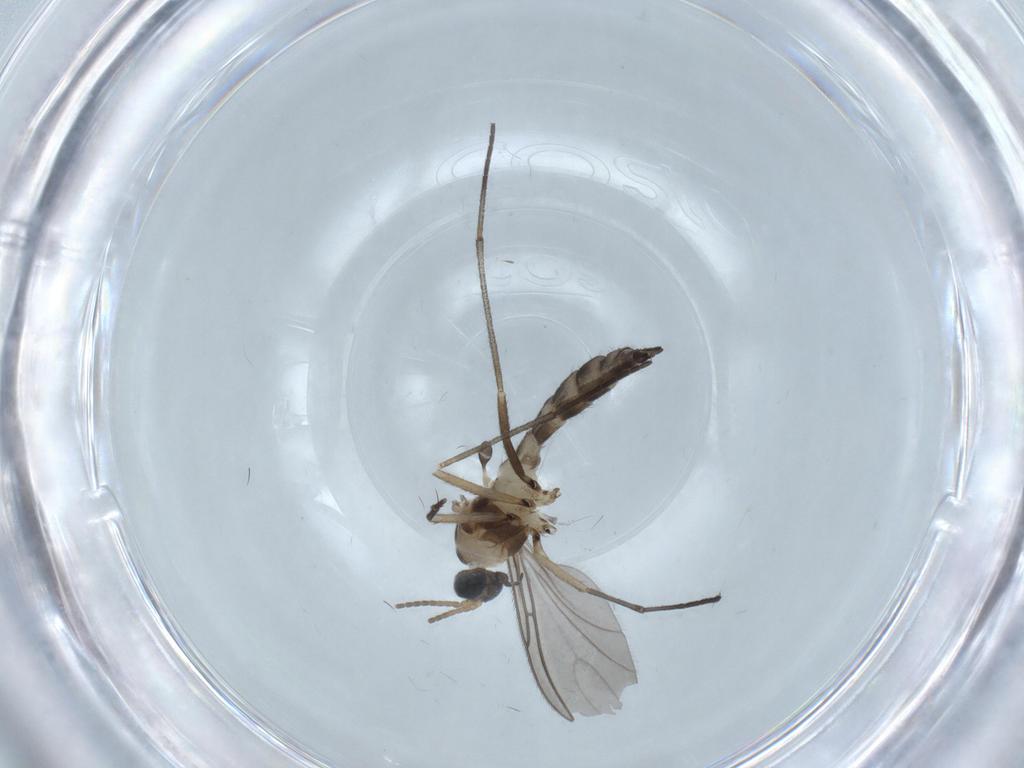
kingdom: Animalia
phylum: Arthropoda
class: Insecta
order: Diptera
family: Sciaridae
